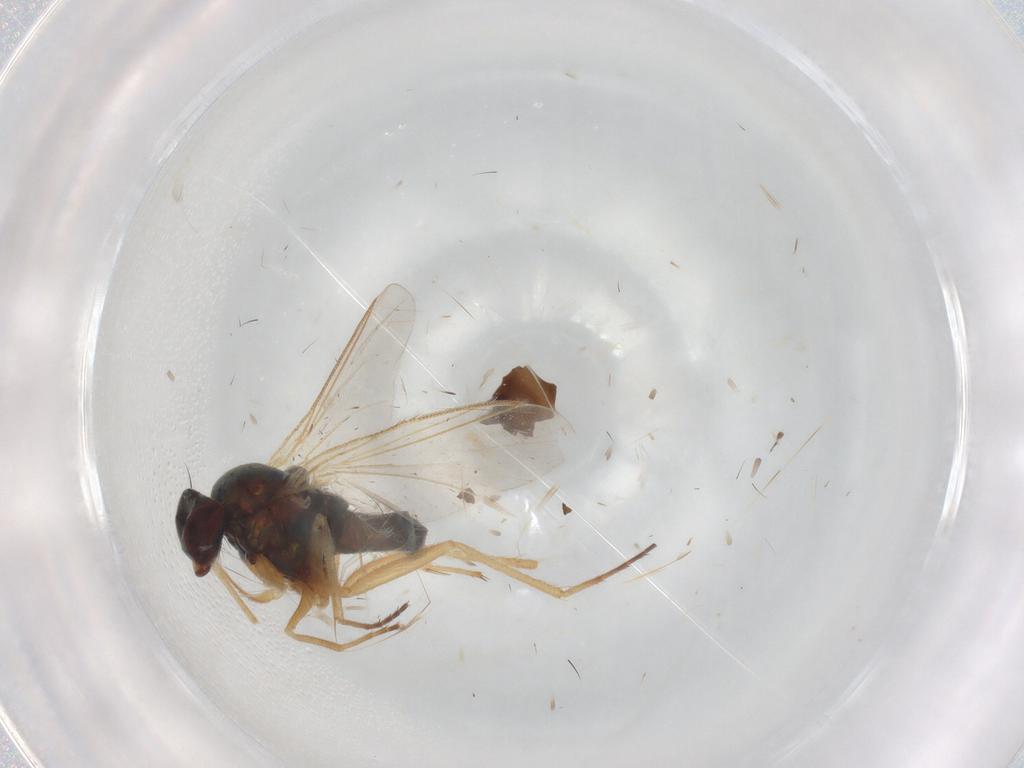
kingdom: Animalia
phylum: Arthropoda
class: Insecta
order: Diptera
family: Dolichopodidae
